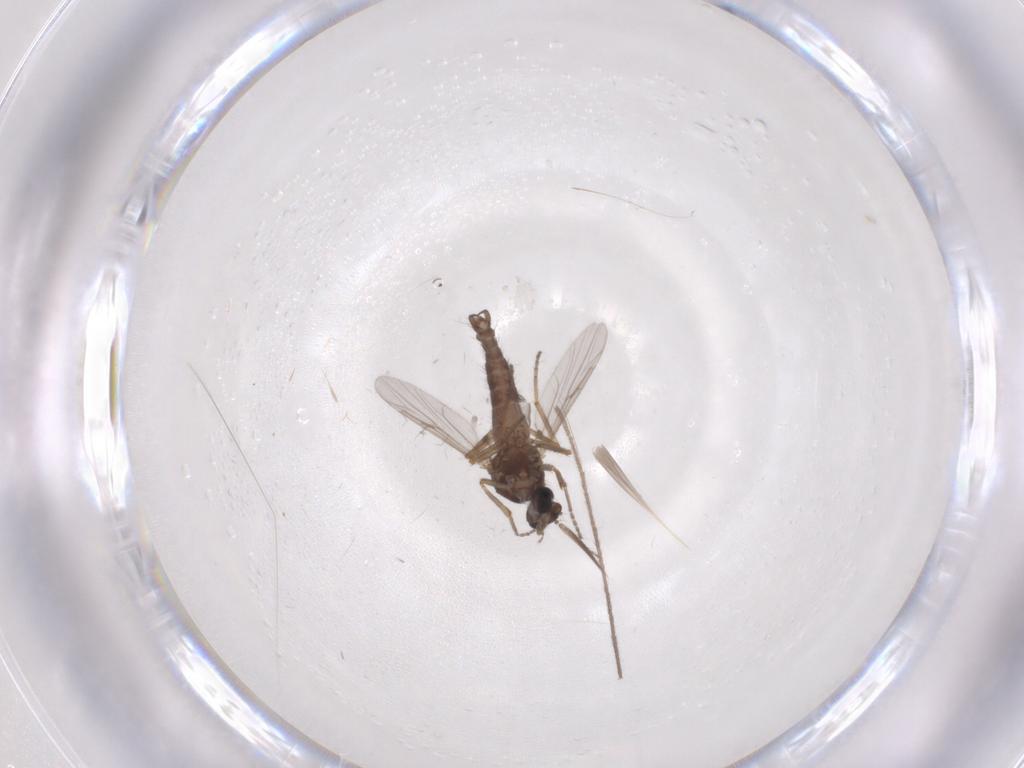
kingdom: Animalia
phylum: Arthropoda
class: Insecta
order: Diptera
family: Ceratopogonidae
